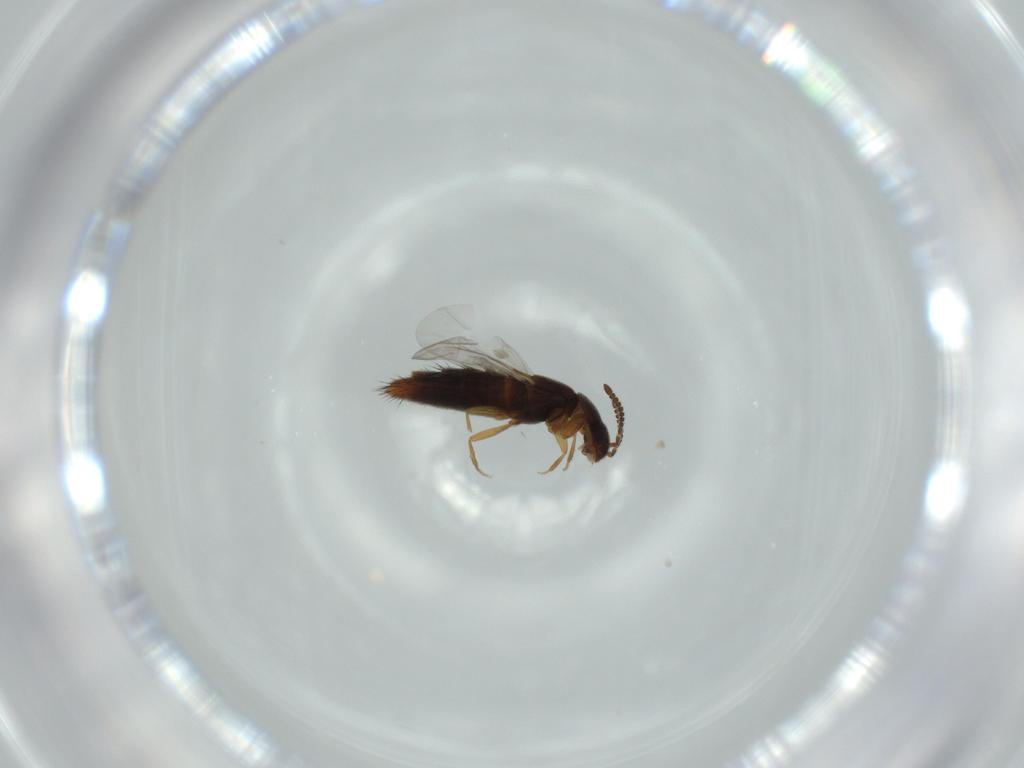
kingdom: Animalia
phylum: Arthropoda
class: Insecta
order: Coleoptera
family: Staphylinidae
